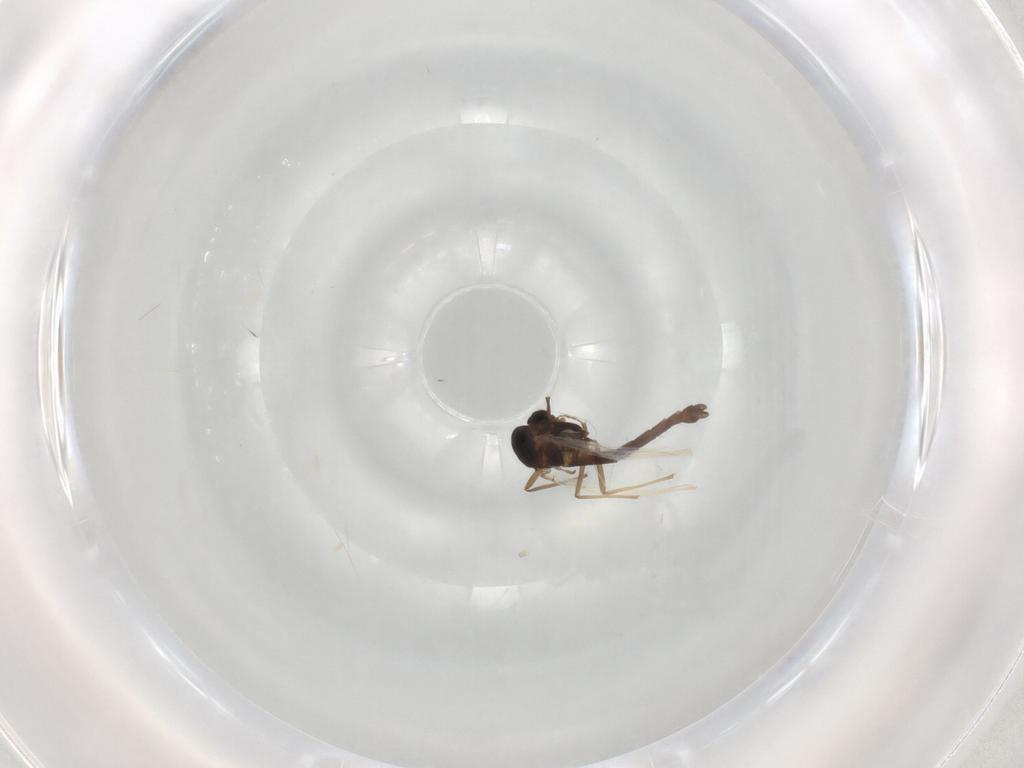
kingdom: Animalia
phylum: Arthropoda
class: Insecta
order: Diptera
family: Chironomidae
